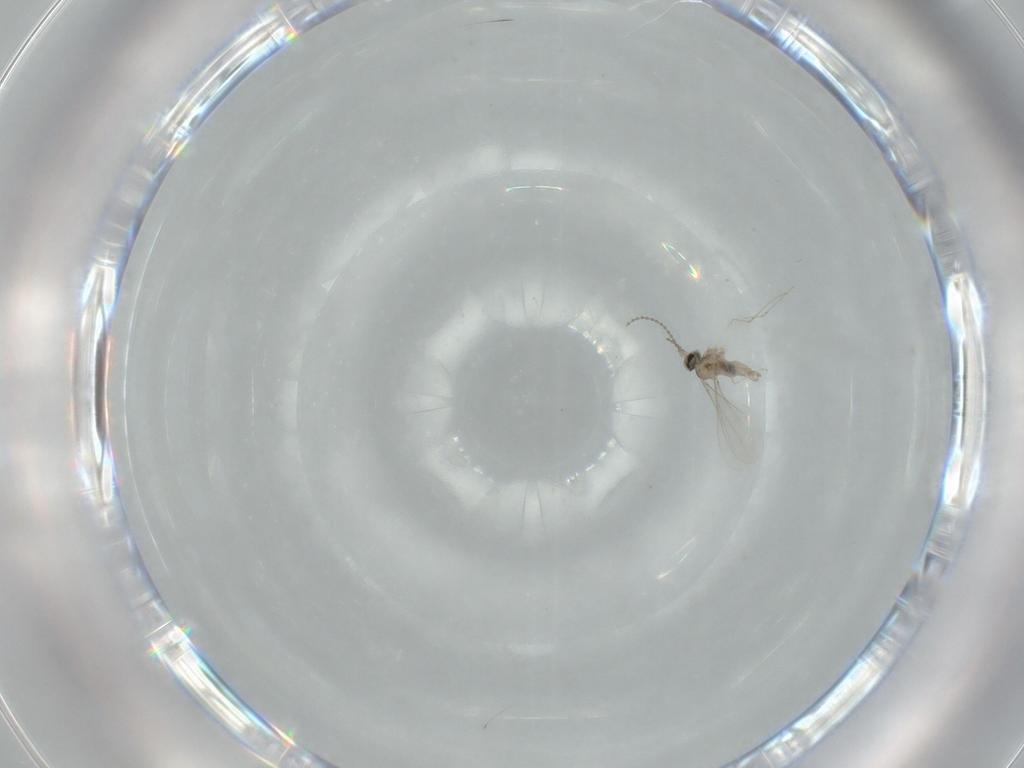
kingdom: Animalia
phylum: Arthropoda
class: Insecta
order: Diptera
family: Cecidomyiidae
